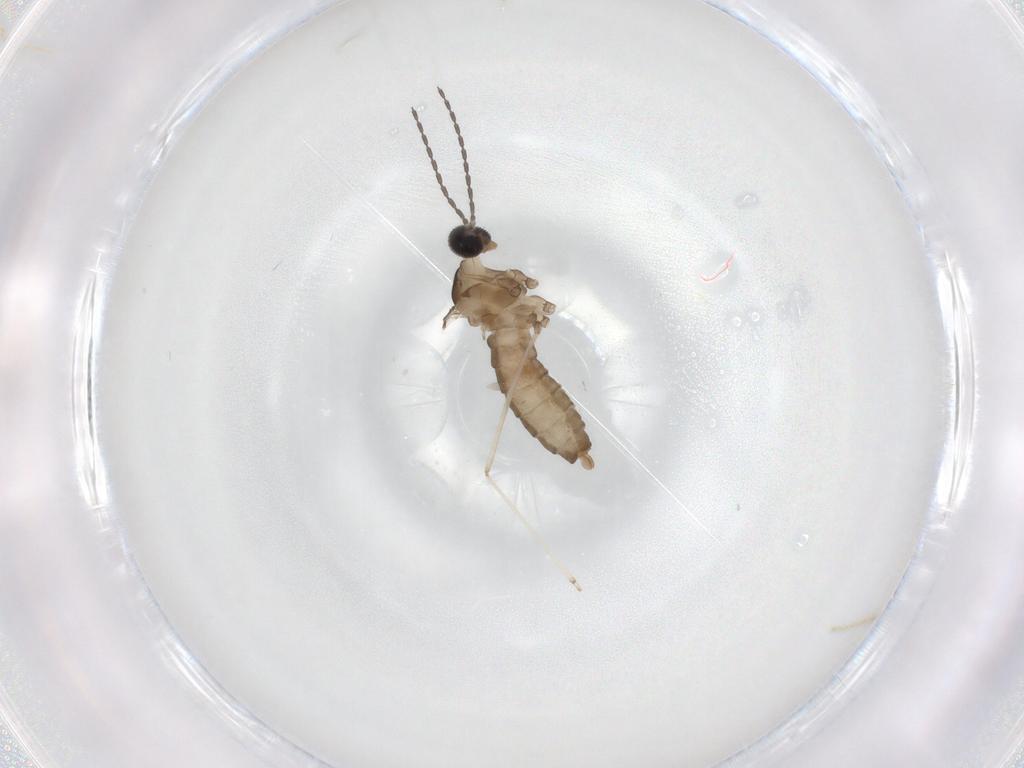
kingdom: Animalia
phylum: Arthropoda
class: Insecta
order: Diptera
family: Cecidomyiidae
